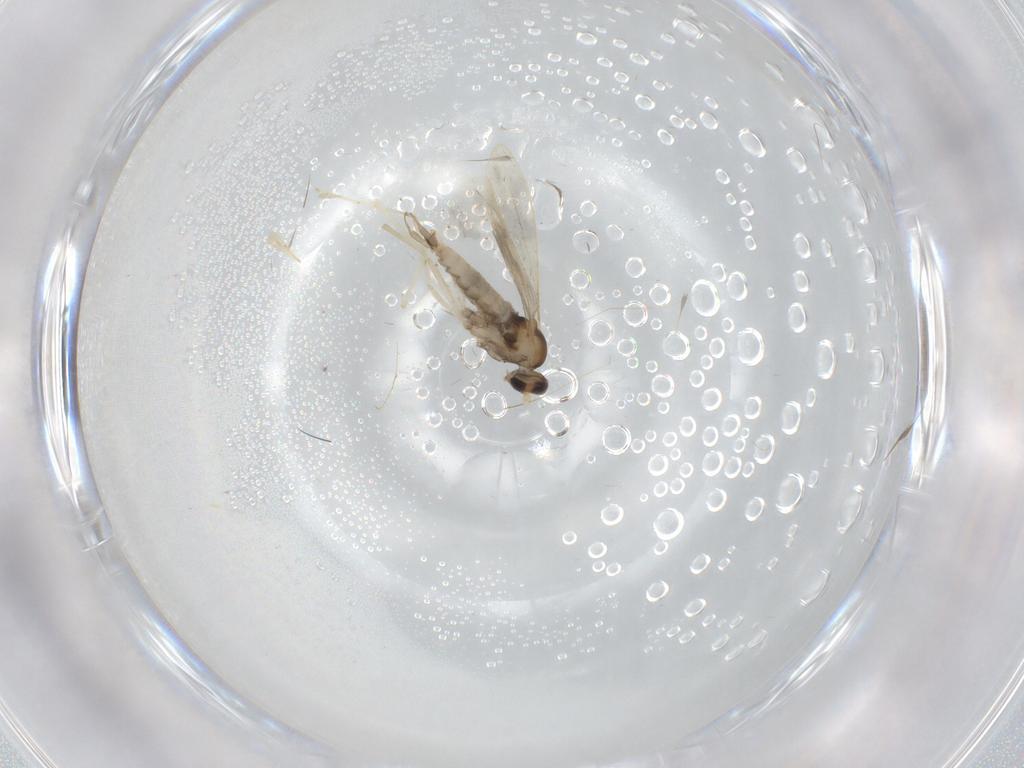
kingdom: Animalia
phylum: Arthropoda
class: Insecta
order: Diptera
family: Cecidomyiidae
